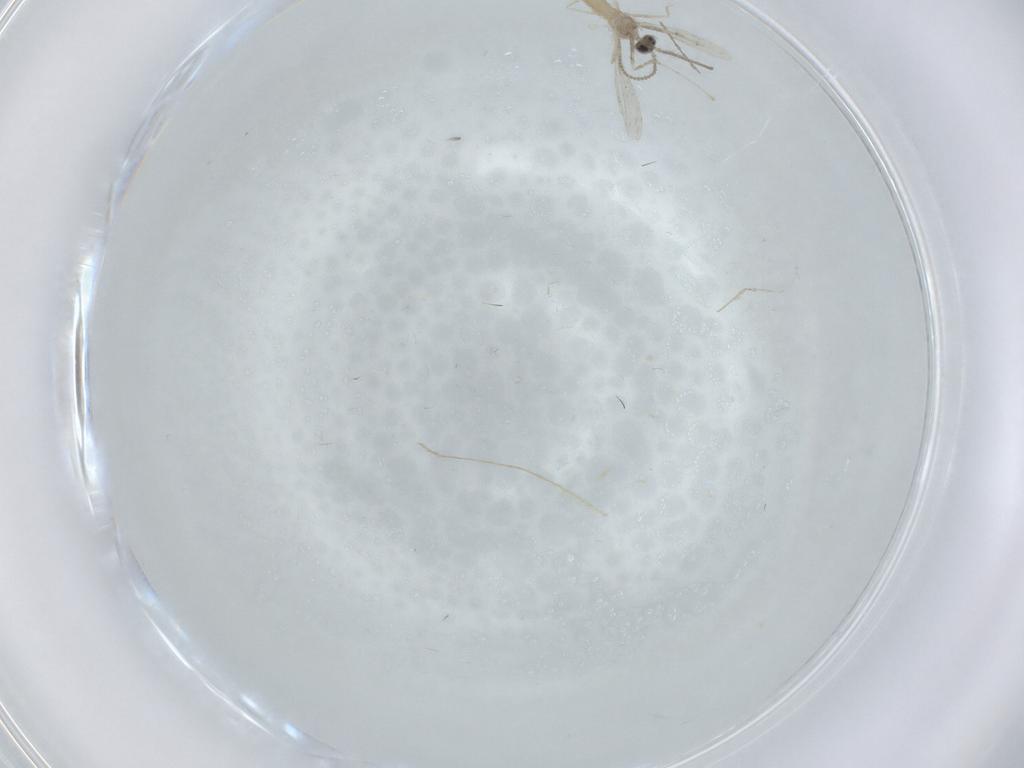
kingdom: Animalia
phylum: Arthropoda
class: Insecta
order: Diptera
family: Cecidomyiidae
